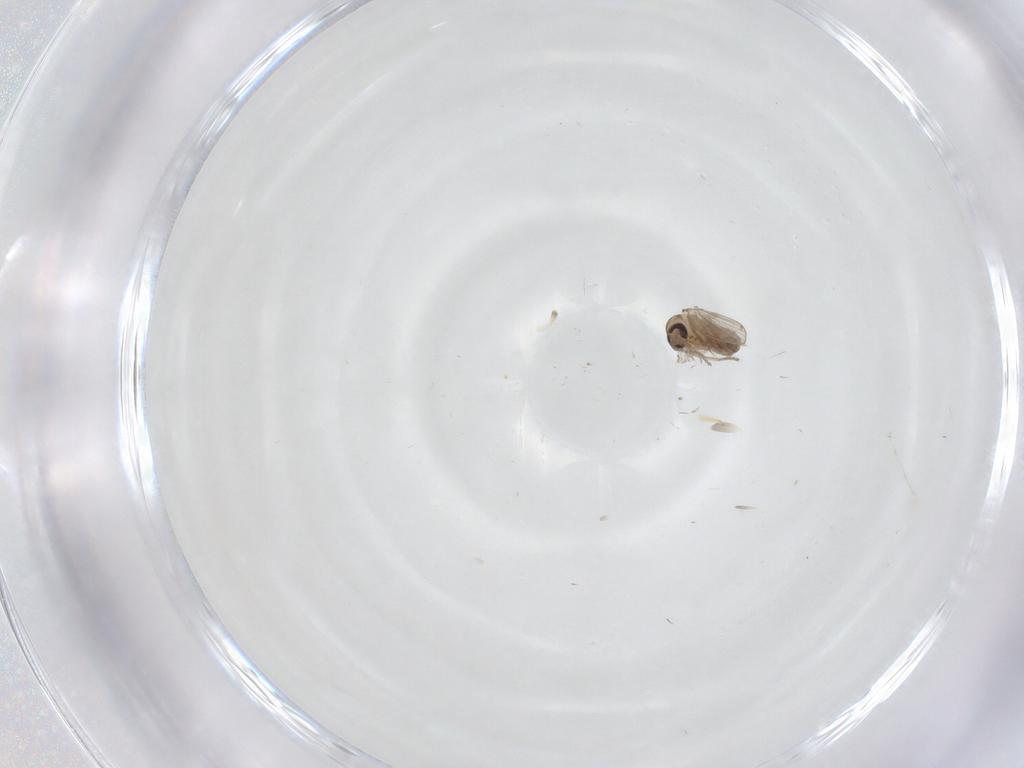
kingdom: Animalia
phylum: Arthropoda
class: Insecta
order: Diptera
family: Psychodidae
